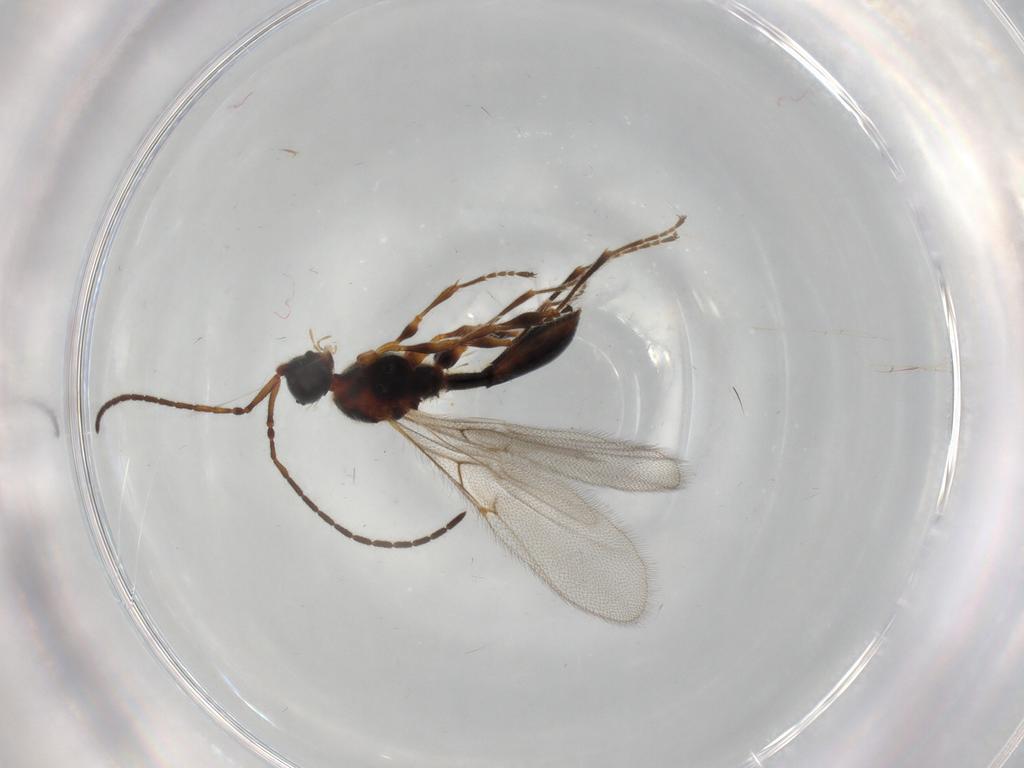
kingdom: Animalia
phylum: Arthropoda
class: Insecta
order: Hymenoptera
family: Diapriidae
